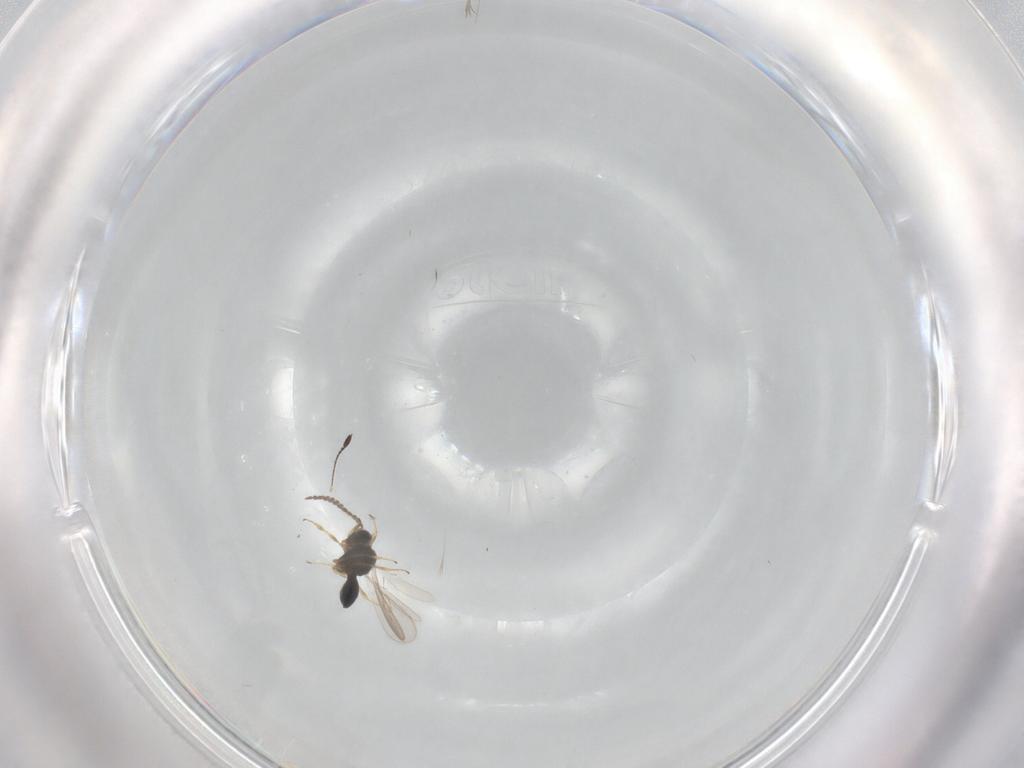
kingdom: Animalia
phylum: Arthropoda
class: Insecta
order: Hymenoptera
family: Scelionidae
